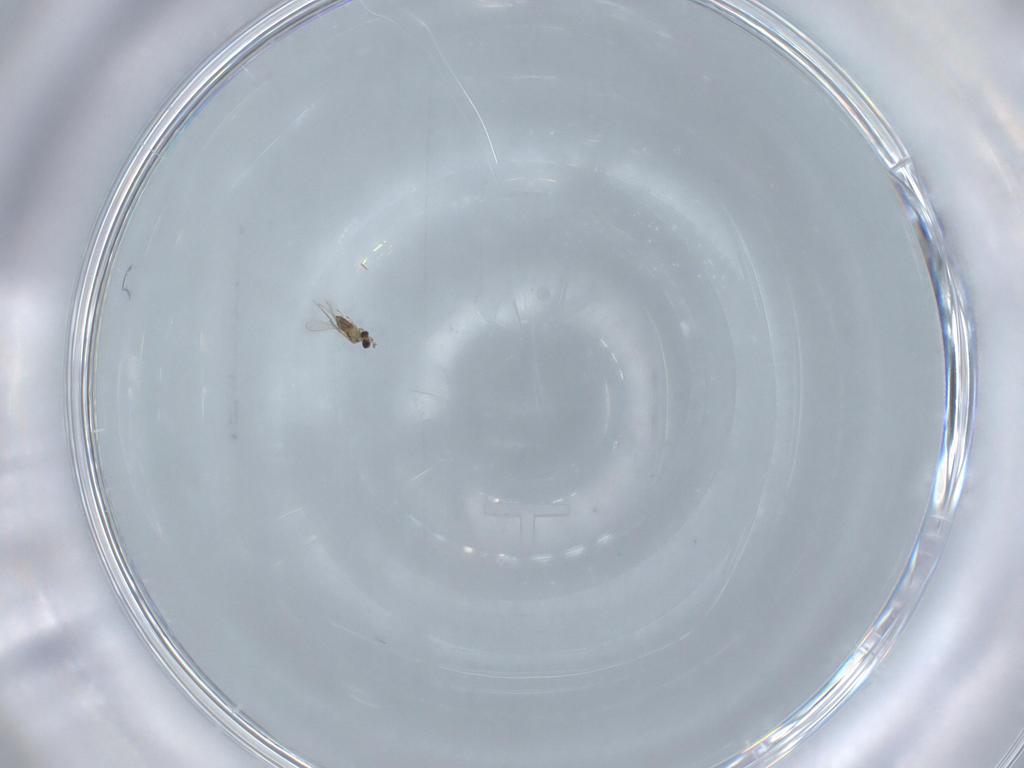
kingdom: Animalia
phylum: Arthropoda
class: Insecta
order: Hymenoptera
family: Mymaridae
